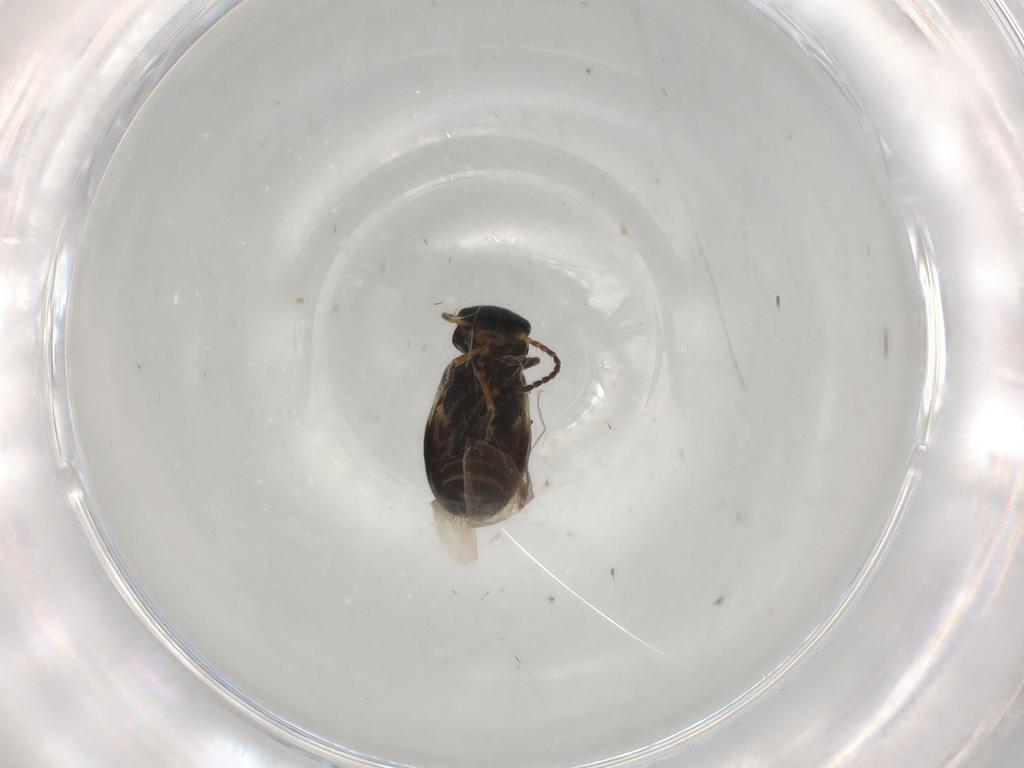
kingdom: Animalia
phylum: Arthropoda
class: Insecta
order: Coleoptera
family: Melyridae
